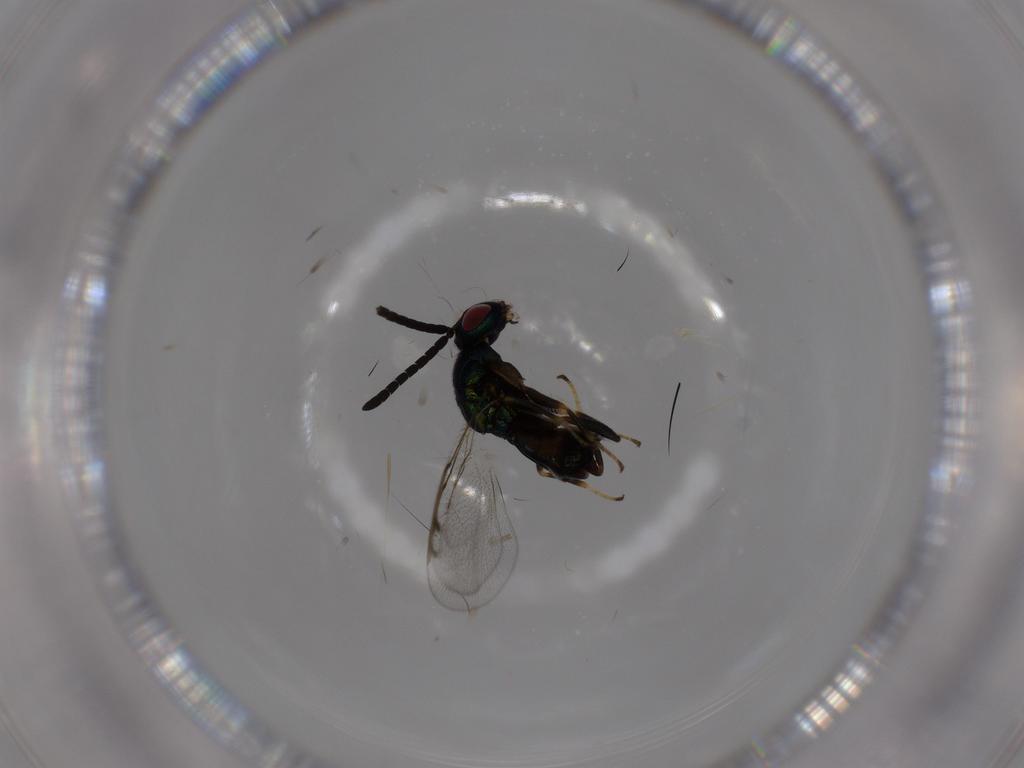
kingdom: Animalia
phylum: Arthropoda
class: Insecta
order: Hymenoptera
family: Torymidae
